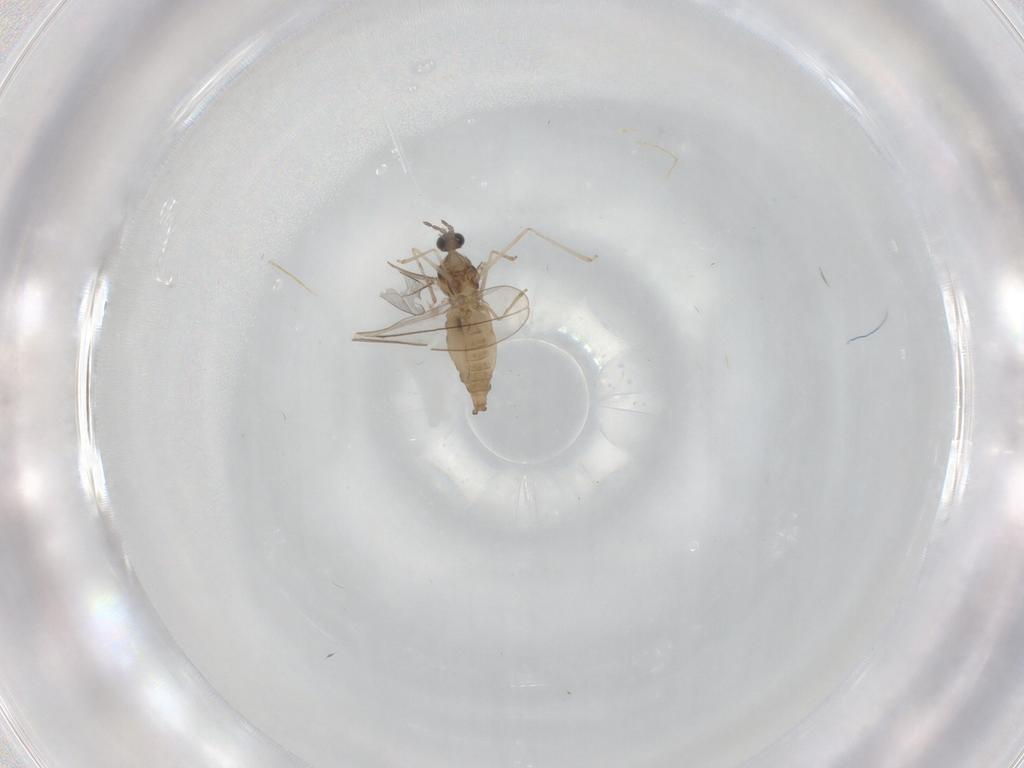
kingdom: Animalia
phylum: Arthropoda
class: Insecta
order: Diptera
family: Cecidomyiidae
